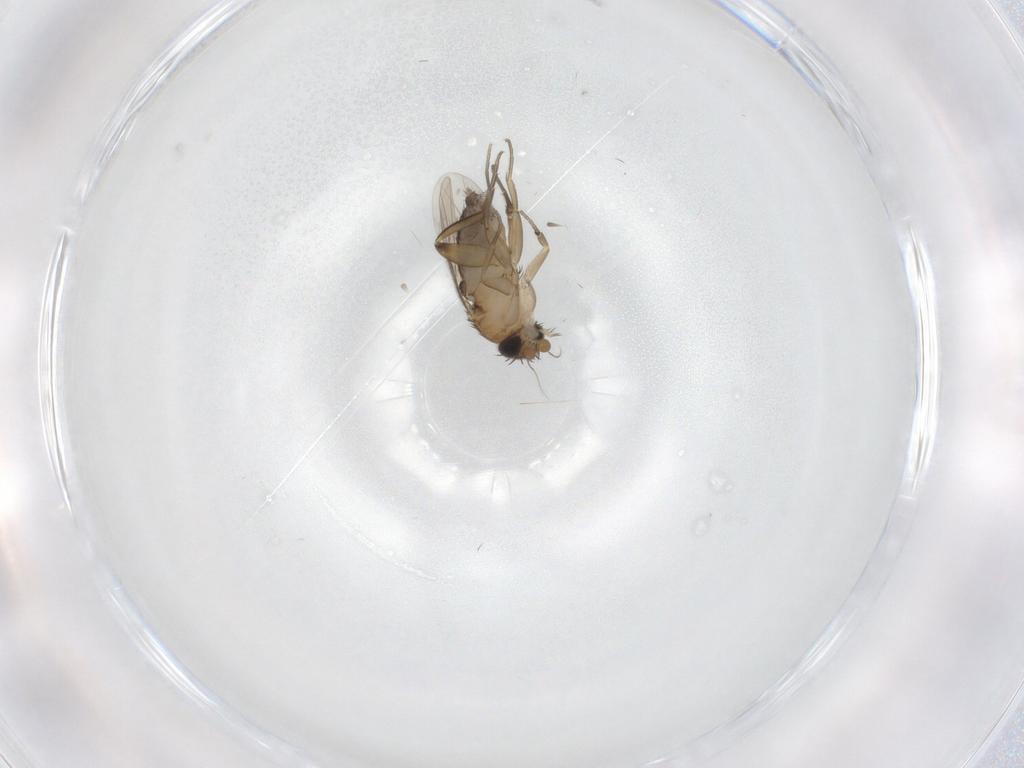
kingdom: Animalia
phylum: Arthropoda
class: Insecta
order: Diptera
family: Phoridae
